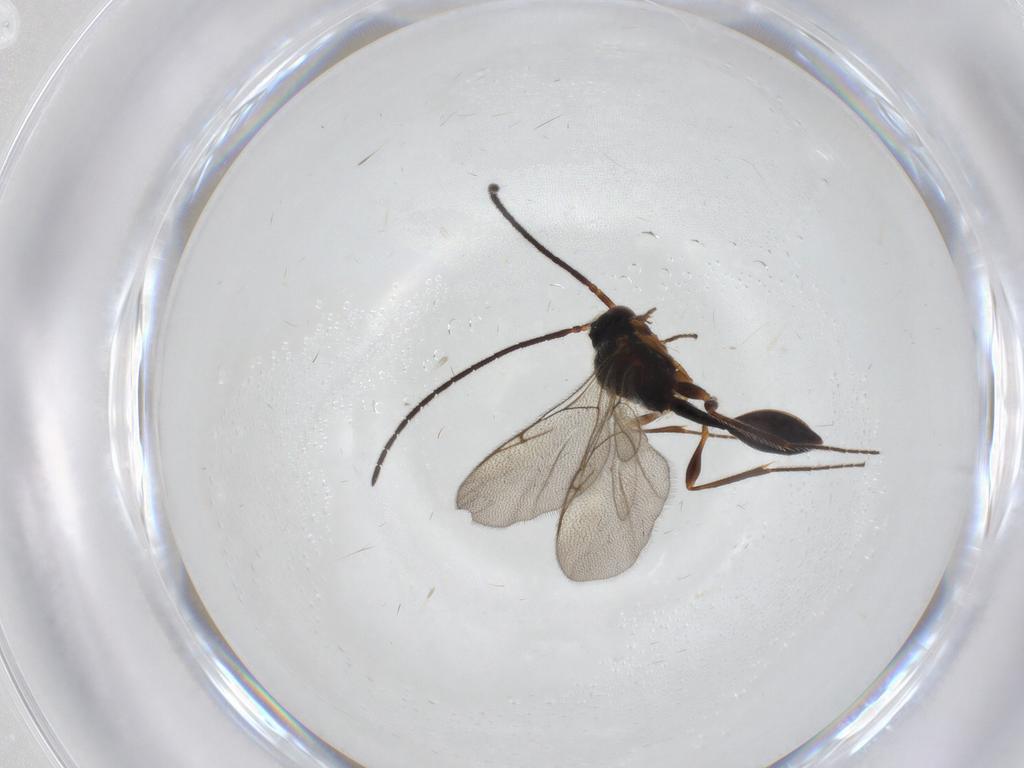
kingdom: Animalia
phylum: Arthropoda
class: Insecta
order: Hymenoptera
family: Diapriidae
